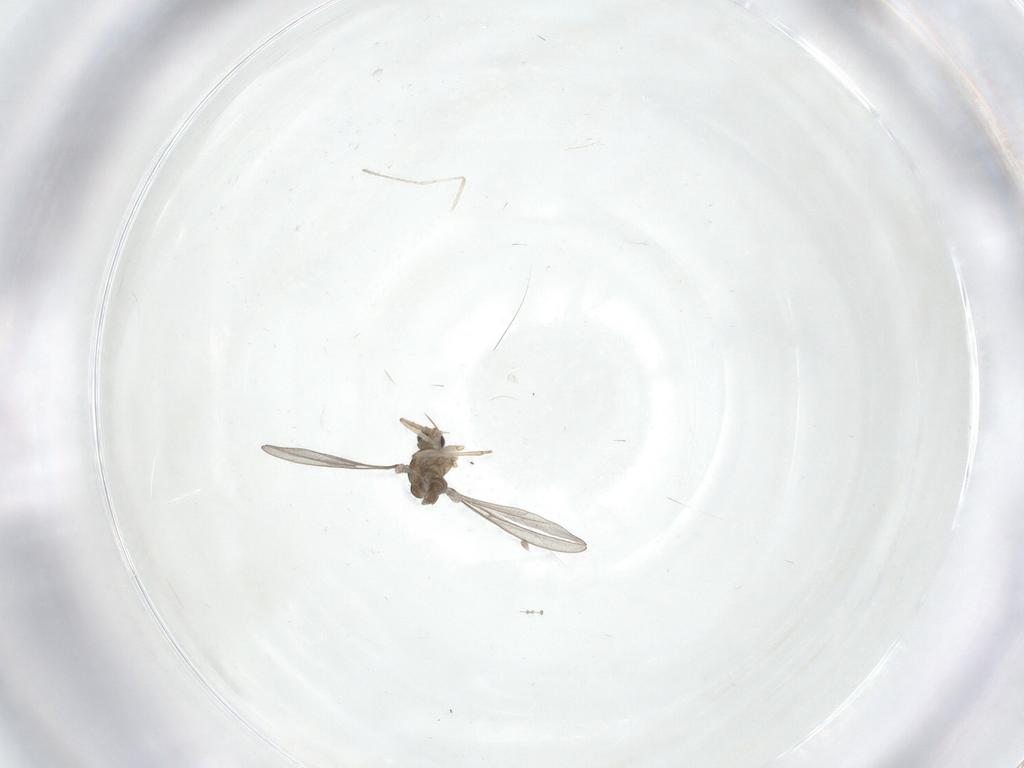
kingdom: Animalia
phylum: Arthropoda
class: Insecta
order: Diptera
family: Cecidomyiidae
